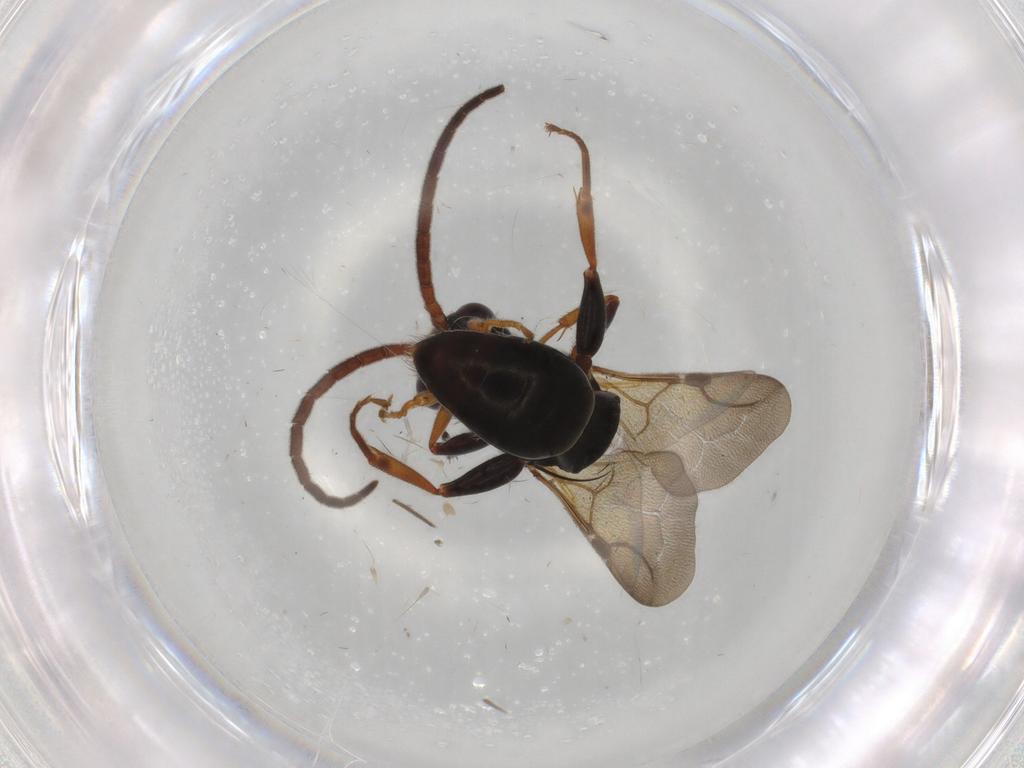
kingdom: Animalia
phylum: Arthropoda
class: Insecta
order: Hymenoptera
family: Bethylidae
